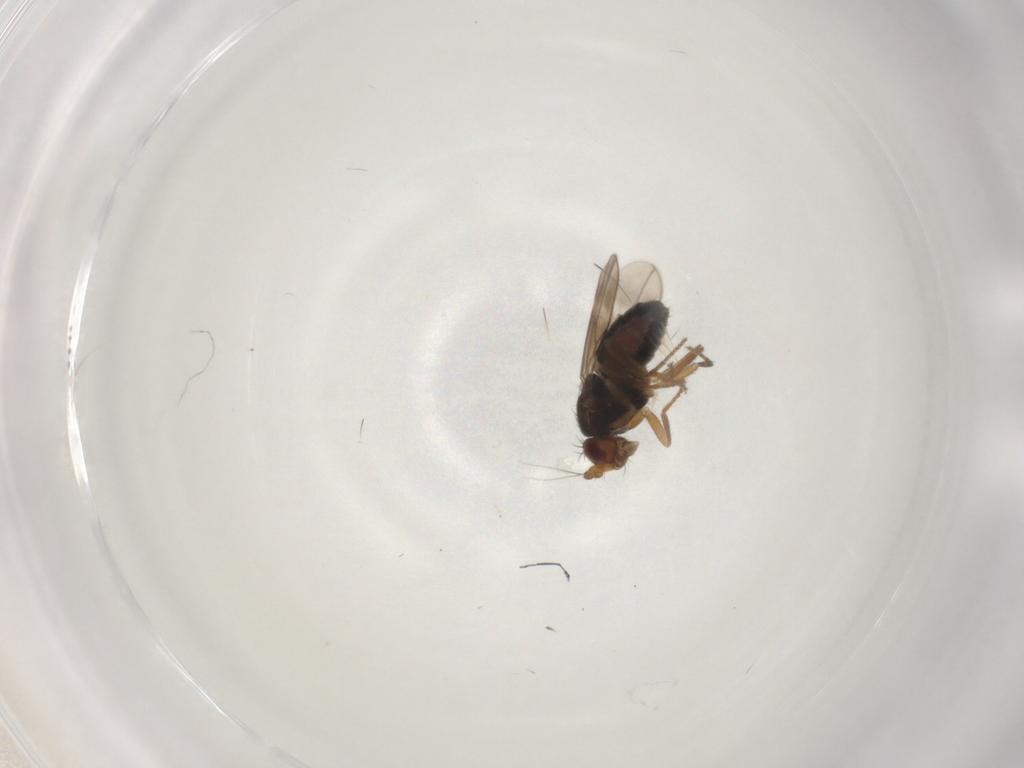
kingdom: Animalia
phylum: Arthropoda
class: Insecta
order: Diptera
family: Sphaeroceridae
